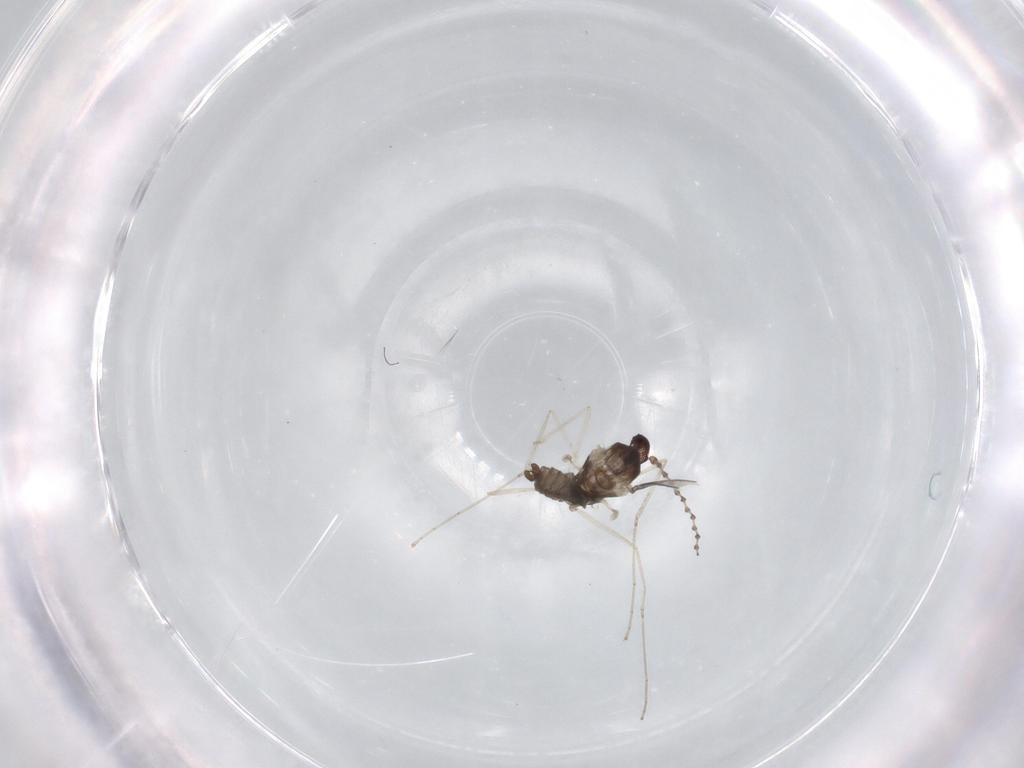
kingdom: Animalia
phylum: Arthropoda
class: Insecta
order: Diptera
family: Cecidomyiidae
